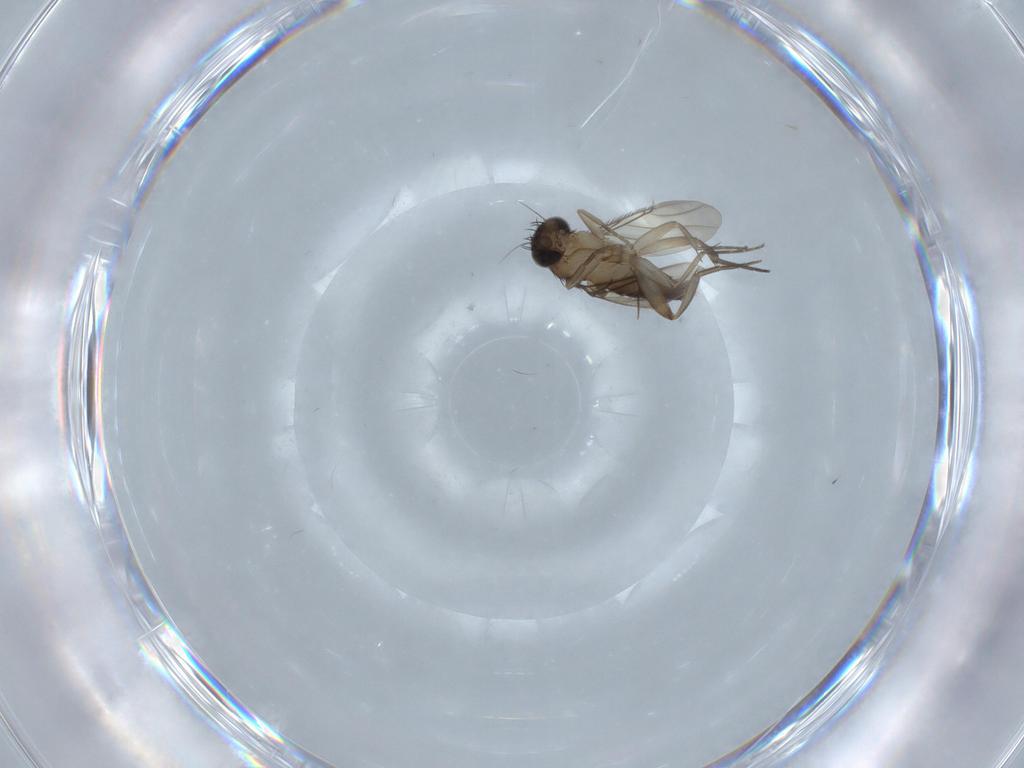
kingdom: Animalia
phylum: Arthropoda
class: Insecta
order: Diptera
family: Phoridae
